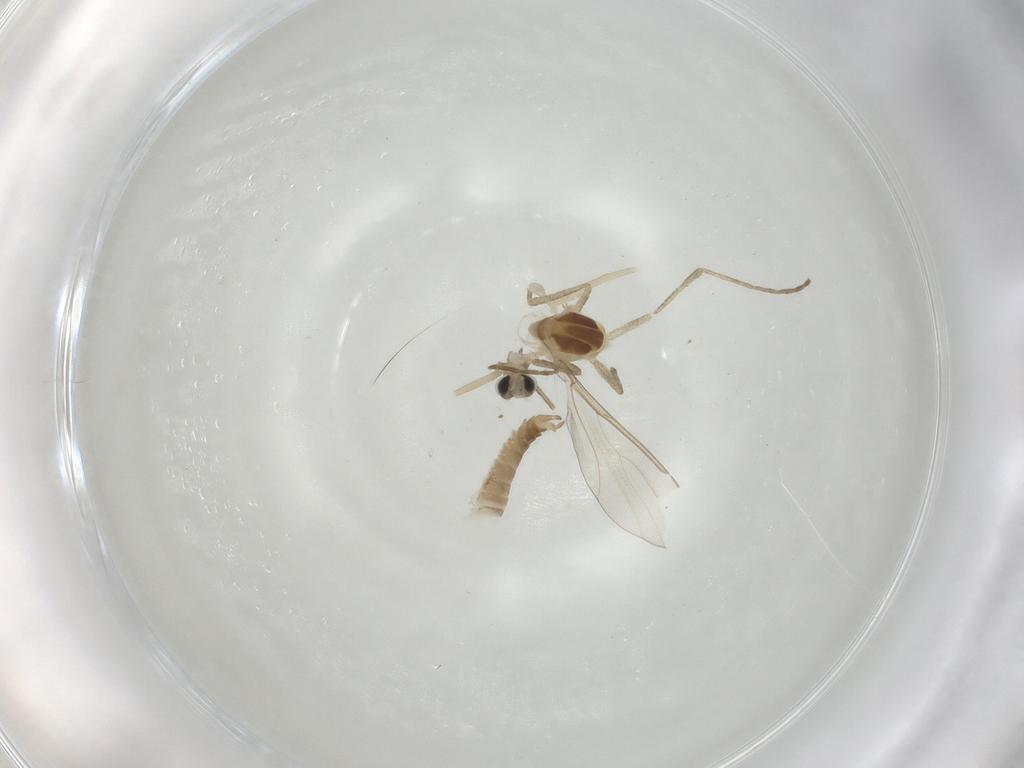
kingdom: Animalia
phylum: Arthropoda
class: Insecta
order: Diptera
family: Cecidomyiidae
